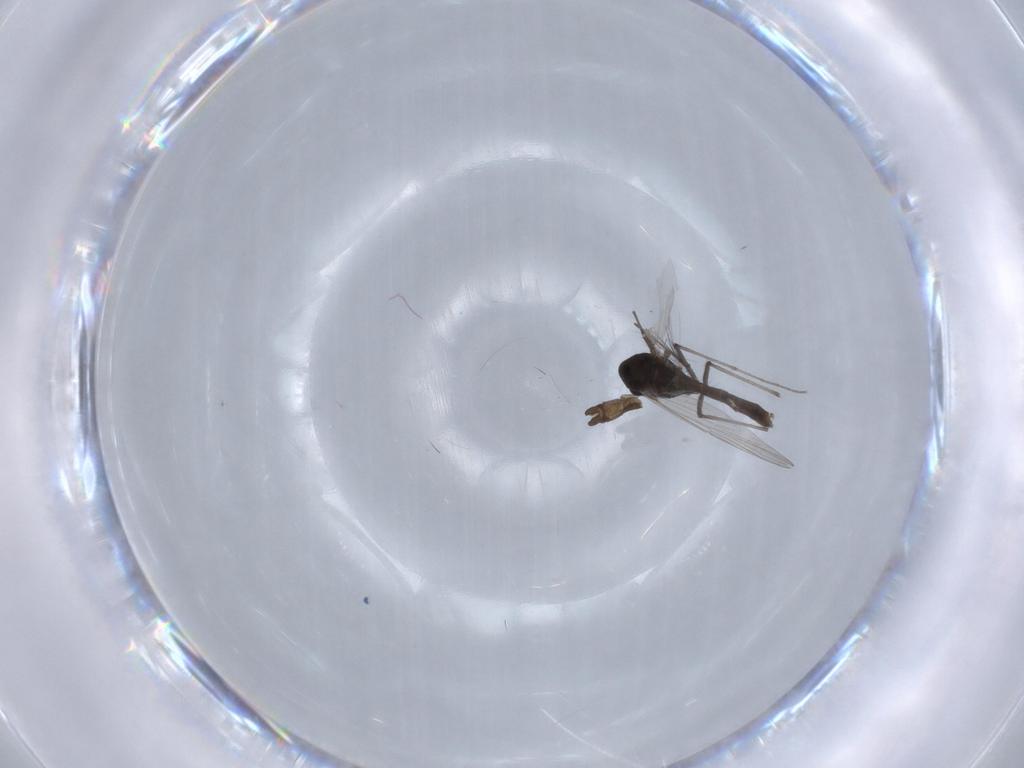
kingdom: Animalia
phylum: Arthropoda
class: Insecta
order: Diptera
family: Chironomidae
